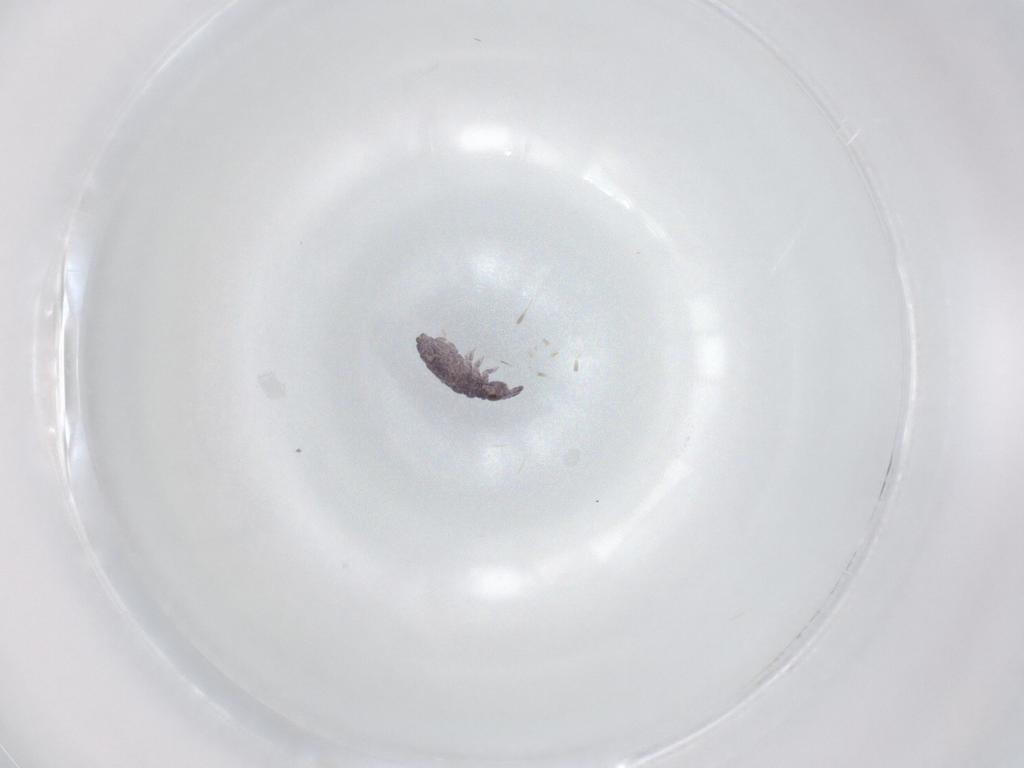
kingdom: Animalia
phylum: Arthropoda
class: Collembola
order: Poduromorpha
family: Brachystomellidae
